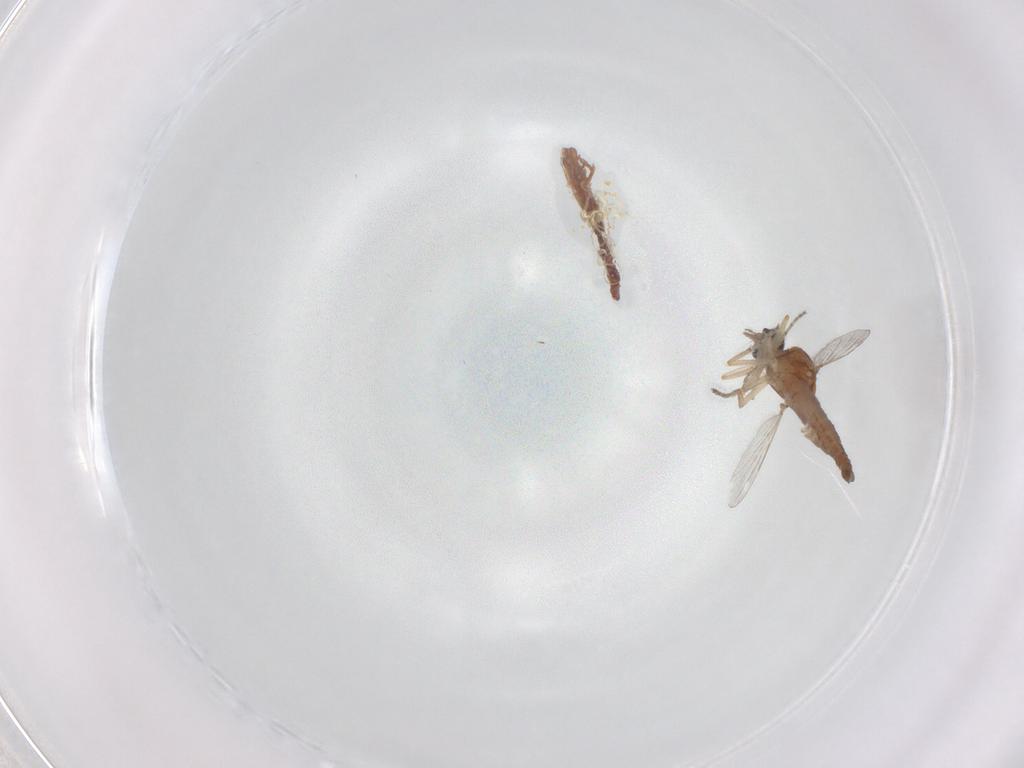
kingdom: Animalia
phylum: Arthropoda
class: Insecta
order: Diptera
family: Ceratopogonidae
